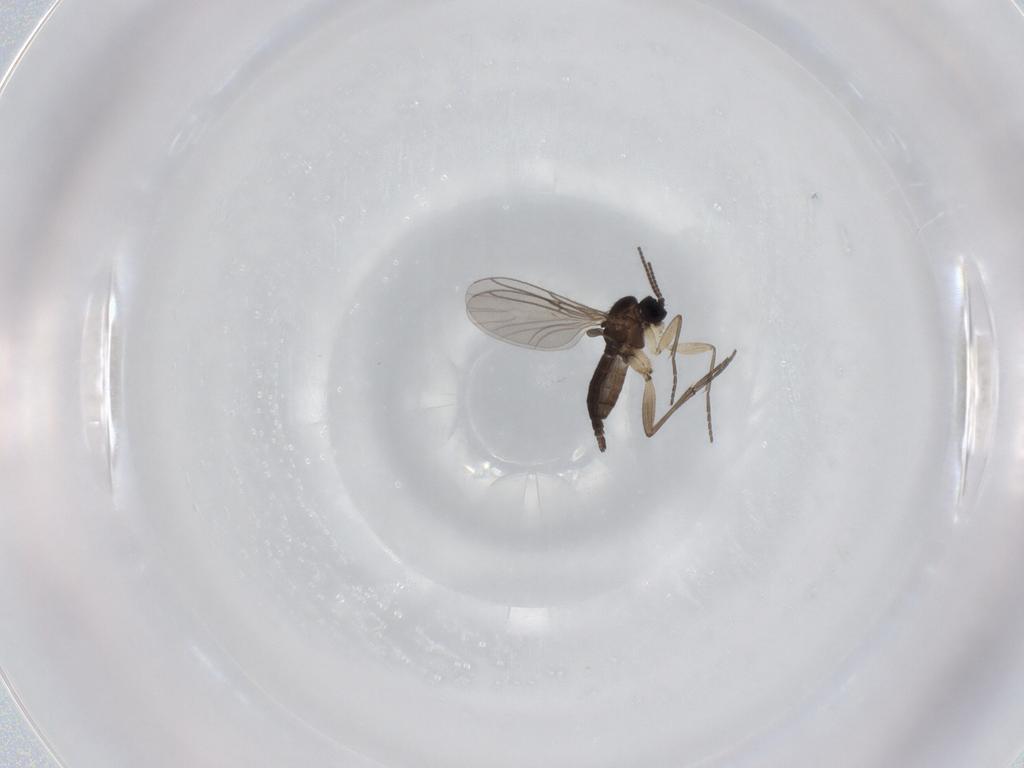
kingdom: Animalia
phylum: Arthropoda
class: Insecta
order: Diptera
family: Sciaridae
